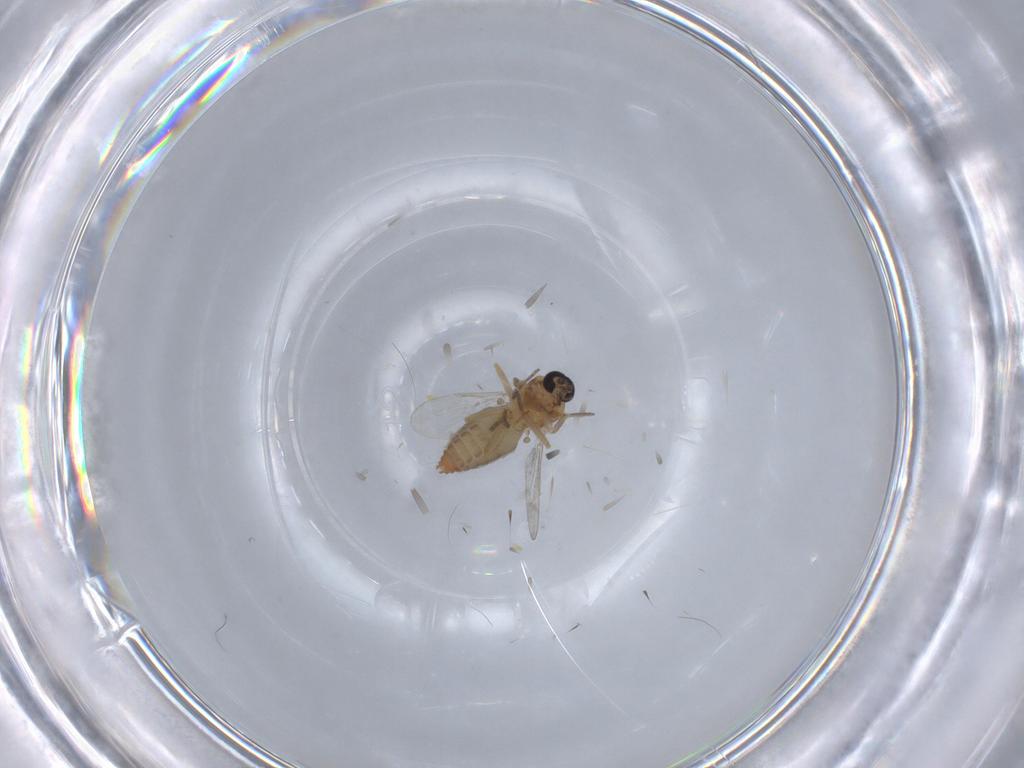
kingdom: Animalia
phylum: Arthropoda
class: Insecta
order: Diptera
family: Ceratopogonidae
